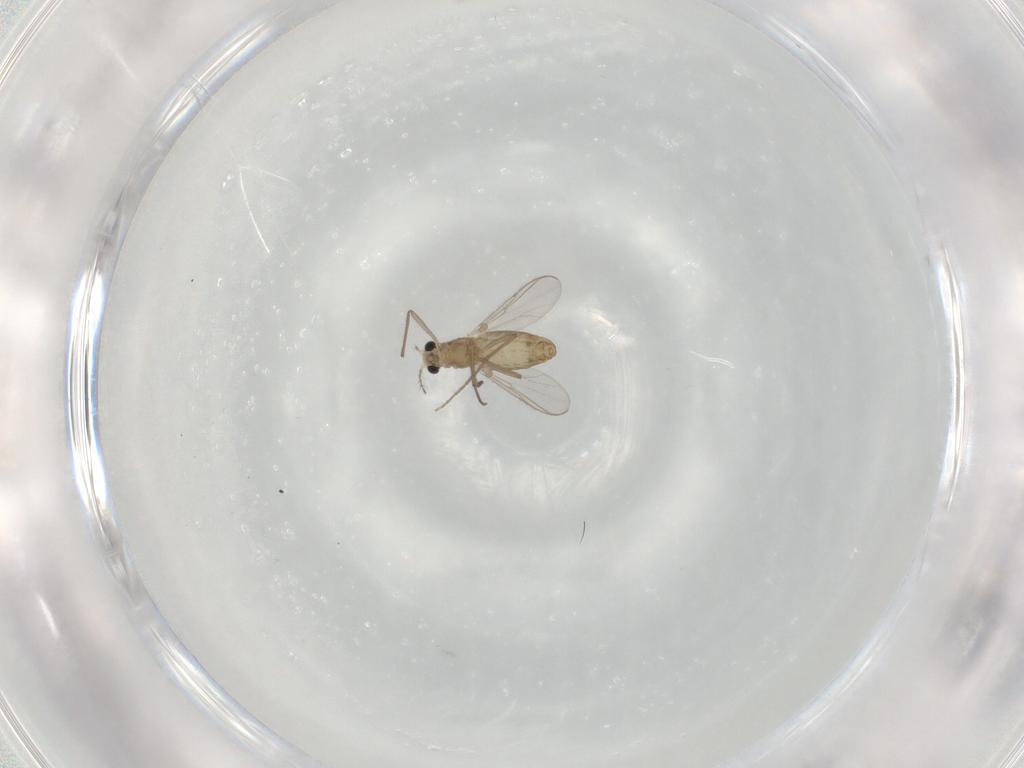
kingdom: Animalia
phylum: Arthropoda
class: Insecta
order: Diptera
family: Chironomidae
